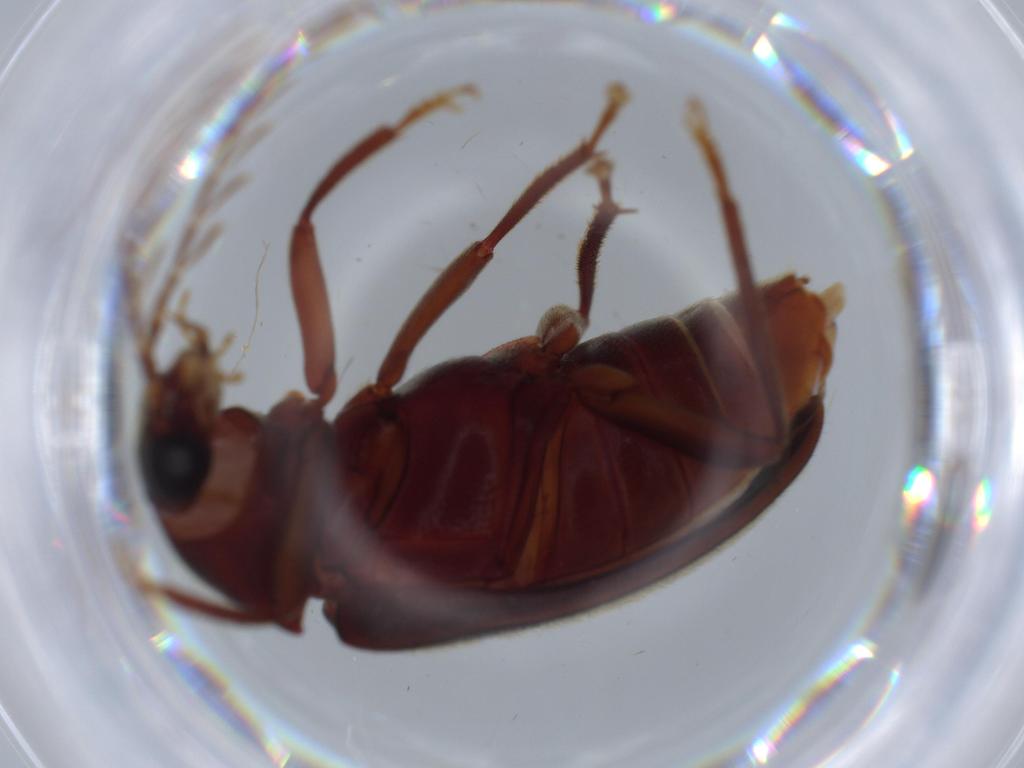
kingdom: Animalia
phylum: Arthropoda
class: Insecta
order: Coleoptera
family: Ptilodactylidae
